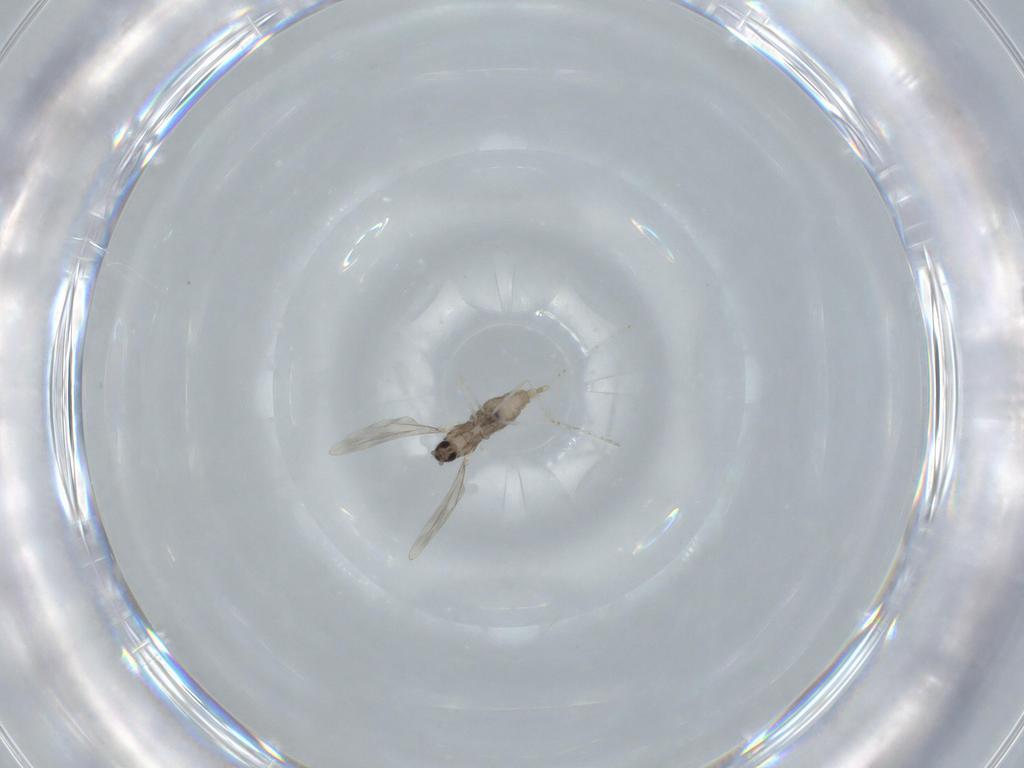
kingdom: Animalia
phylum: Arthropoda
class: Insecta
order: Diptera
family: Cecidomyiidae
